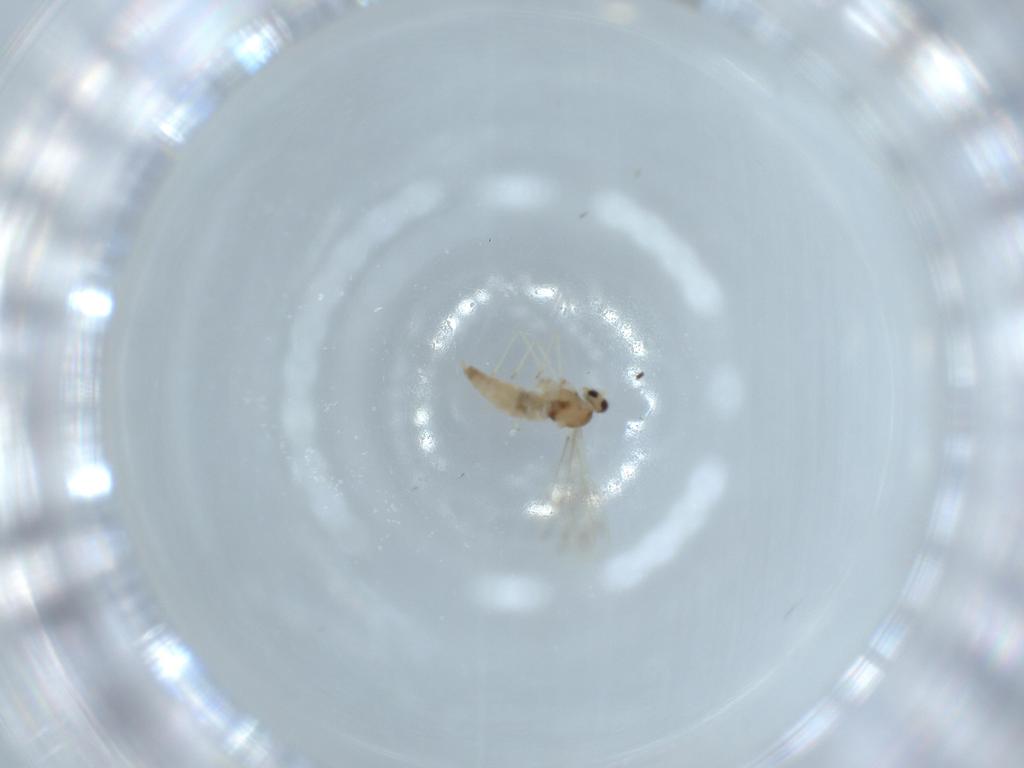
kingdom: Animalia
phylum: Arthropoda
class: Insecta
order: Diptera
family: Cecidomyiidae
